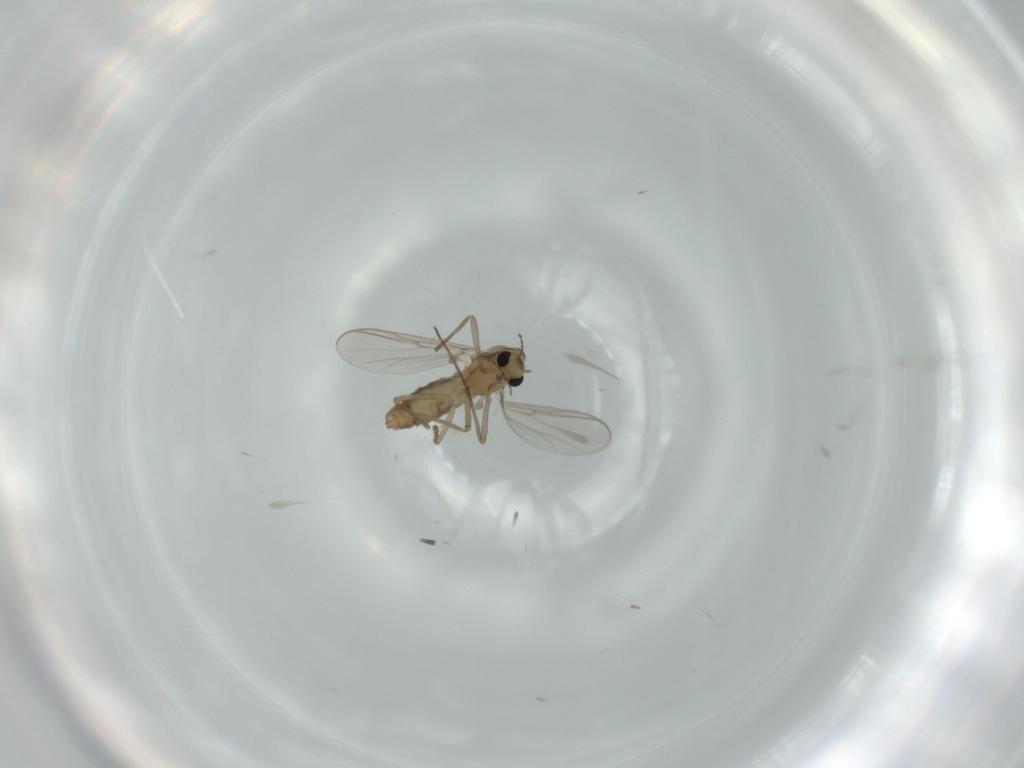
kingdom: Animalia
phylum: Arthropoda
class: Insecta
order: Diptera
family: Chironomidae
